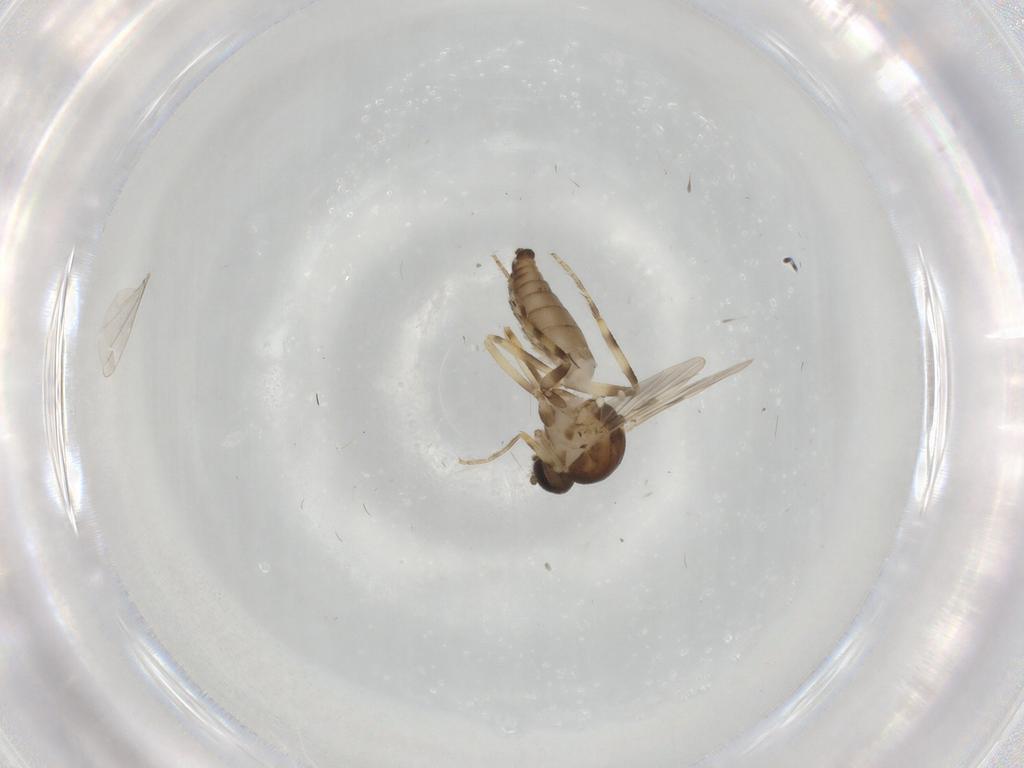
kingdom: Animalia
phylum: Arthropoda
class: Insecta
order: Diptera
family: Ceratopogonidae
